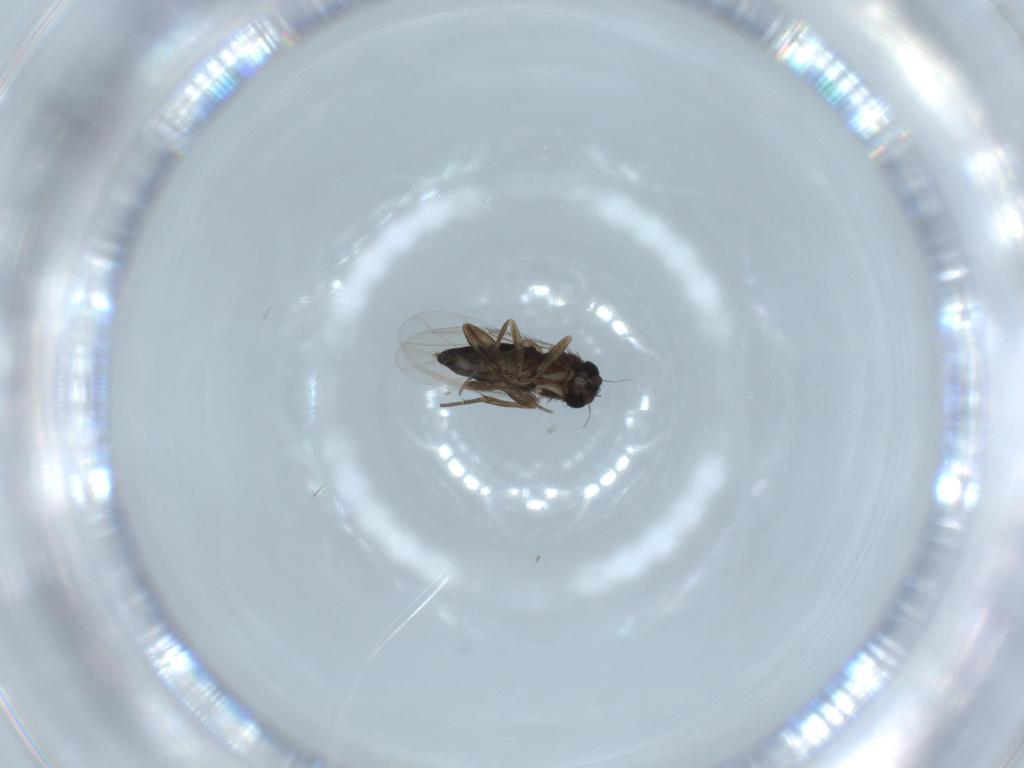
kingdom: Animalia
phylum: Arthropoda
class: Insecta
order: Diptera
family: Phoridae
